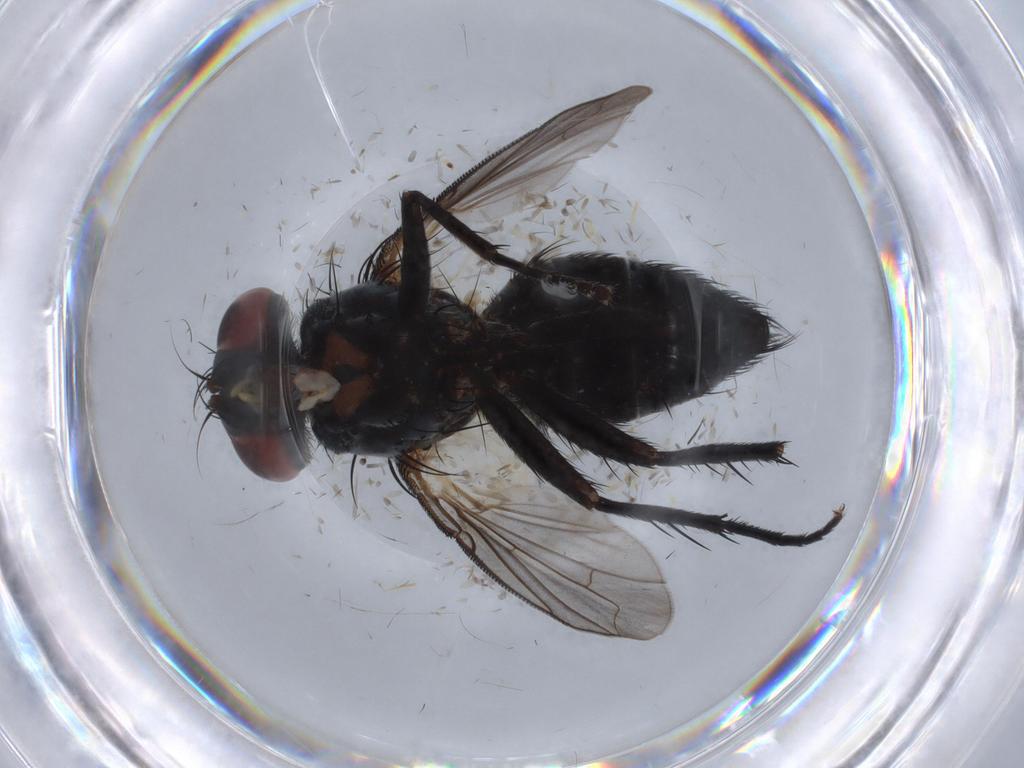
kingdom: Animalia
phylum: Arthropoda
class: Insecta
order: Diptera
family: Tachinidae
